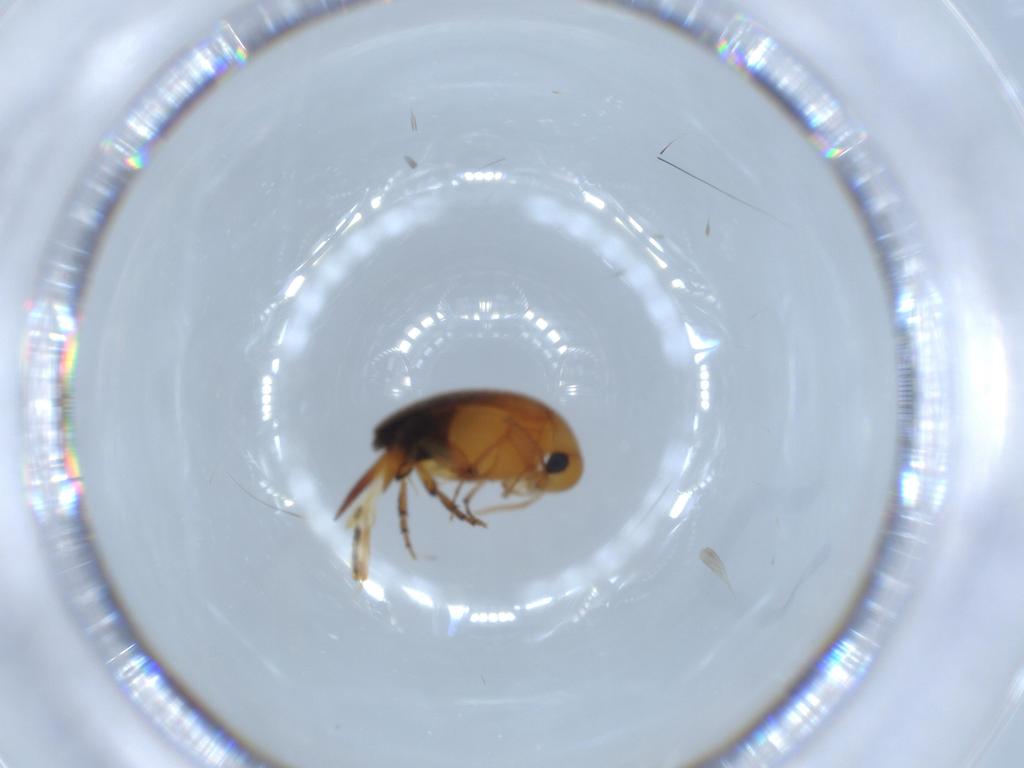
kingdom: Animalia
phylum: Arthropoda
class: Insecta
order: Coleoptera
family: Mordellidae
